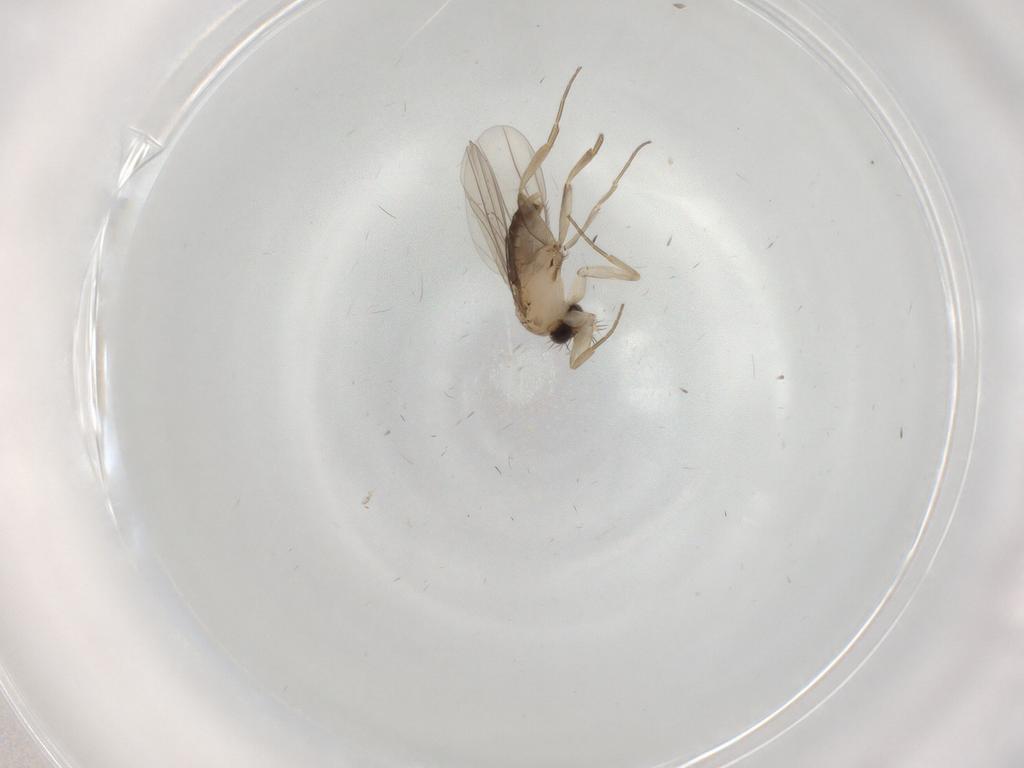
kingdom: Animalia
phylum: Arthropoda
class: Insecta
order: Diptera
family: Phoridae
